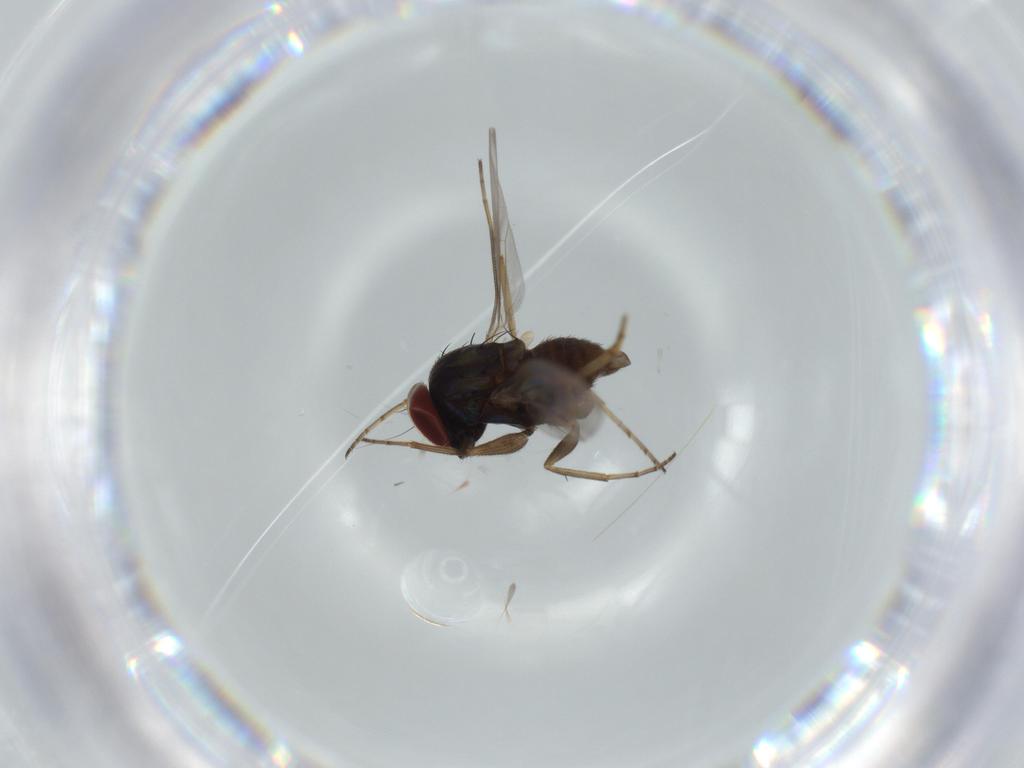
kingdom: Animalia
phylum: Arthropoda
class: Insecta
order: Diptera
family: Dolichopodidae
